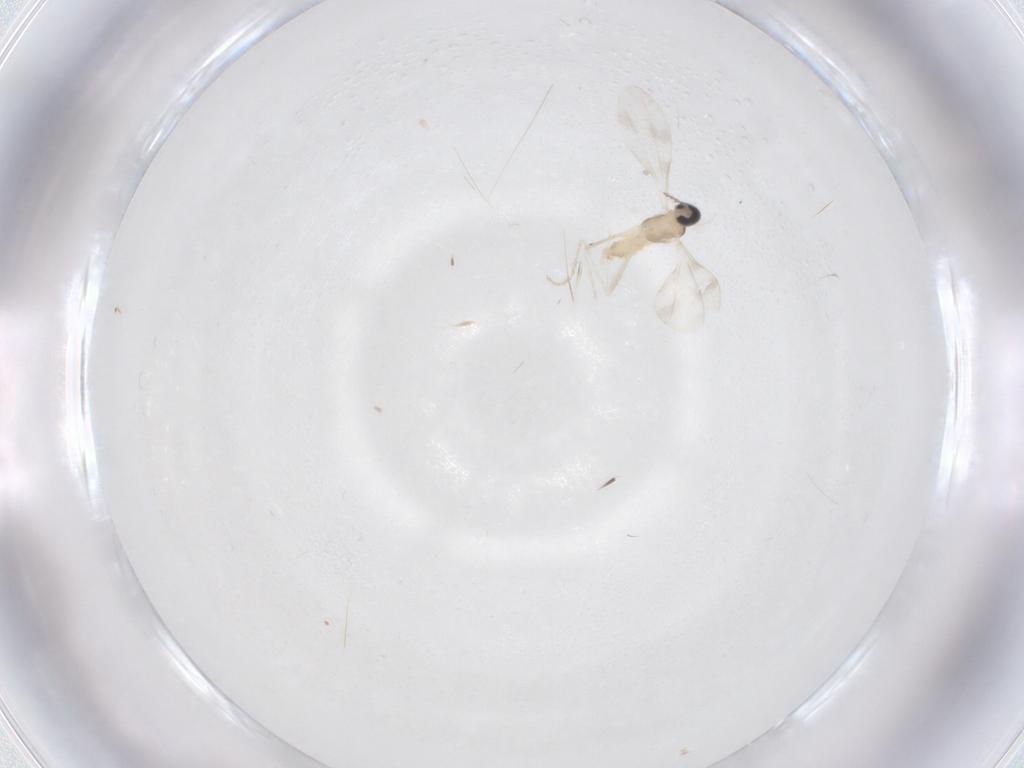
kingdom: Animalia
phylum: Arthropoda
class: Insecta
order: Diptera
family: Cecidomyiidae
